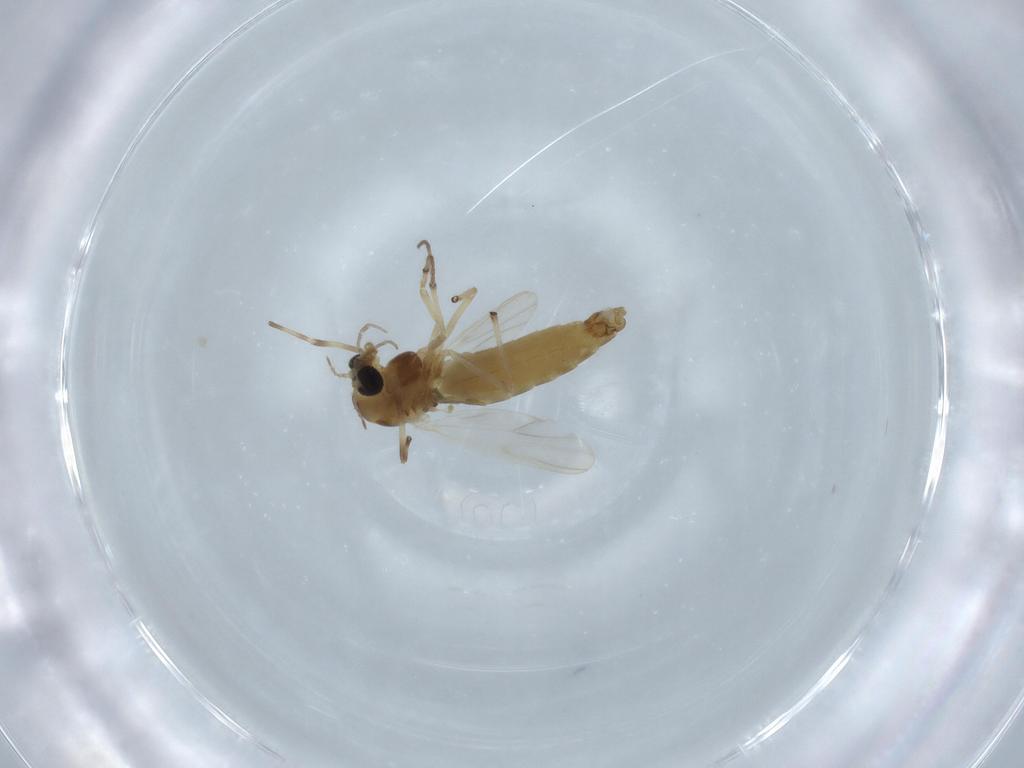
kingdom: Animalia
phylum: Arthropoda
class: Insecta
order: Diptera
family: Chironomidae
